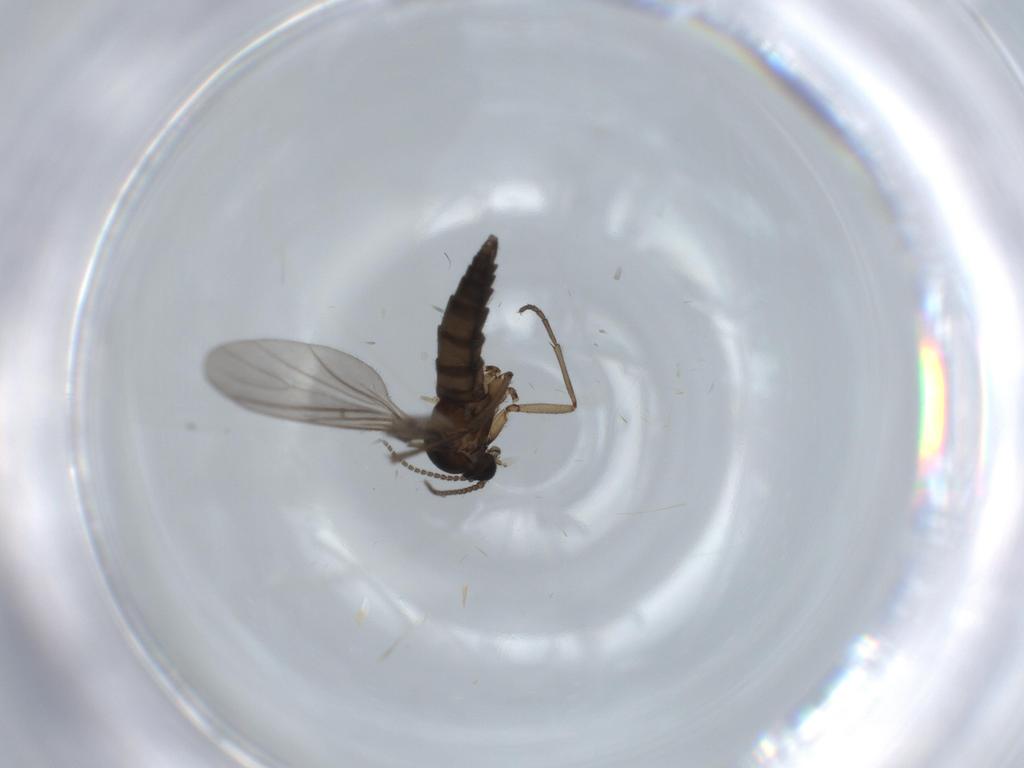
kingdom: Animalia
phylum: Arthropoda
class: Insecta
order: Diptera
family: Sciaridae
